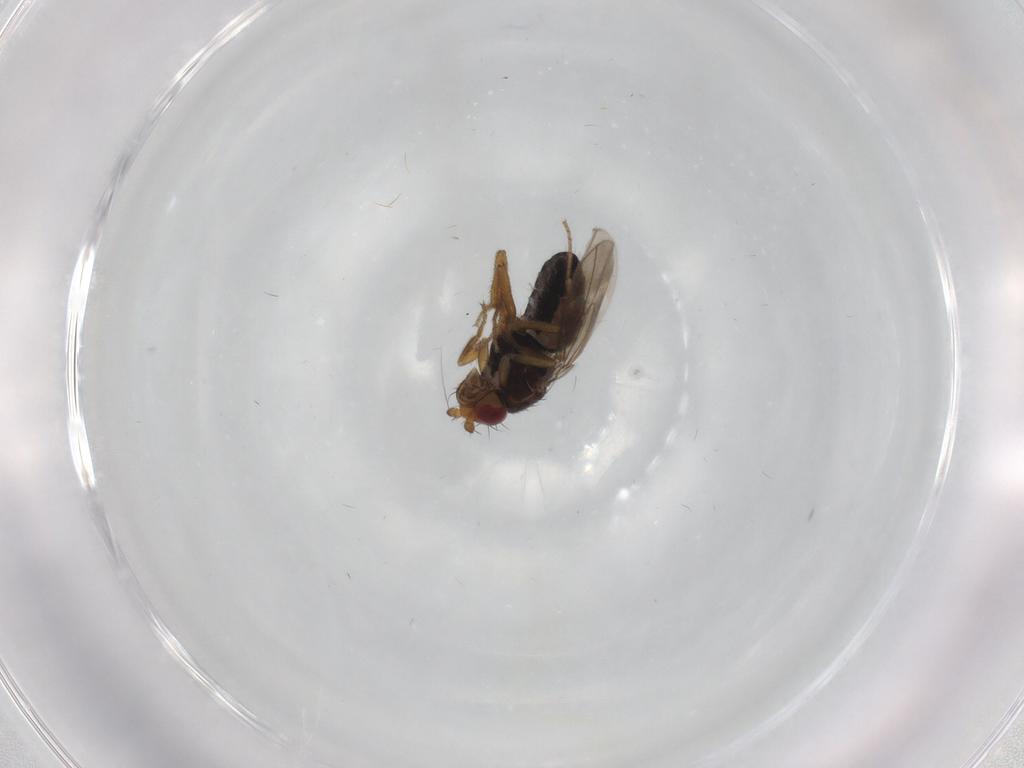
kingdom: Animalia
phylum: Arthropoda
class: Insecta
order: Diptera
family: Sphaeroceridae
